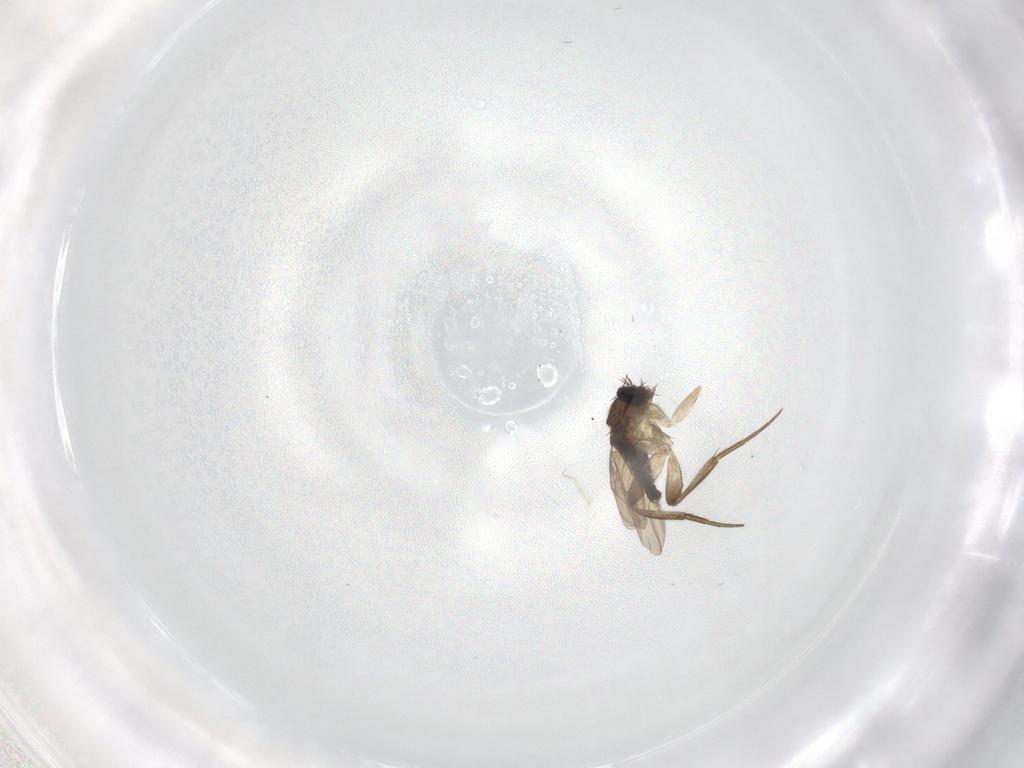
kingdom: Animalia
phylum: Arthropoda
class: Insecta
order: Diptera
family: Phoridae
